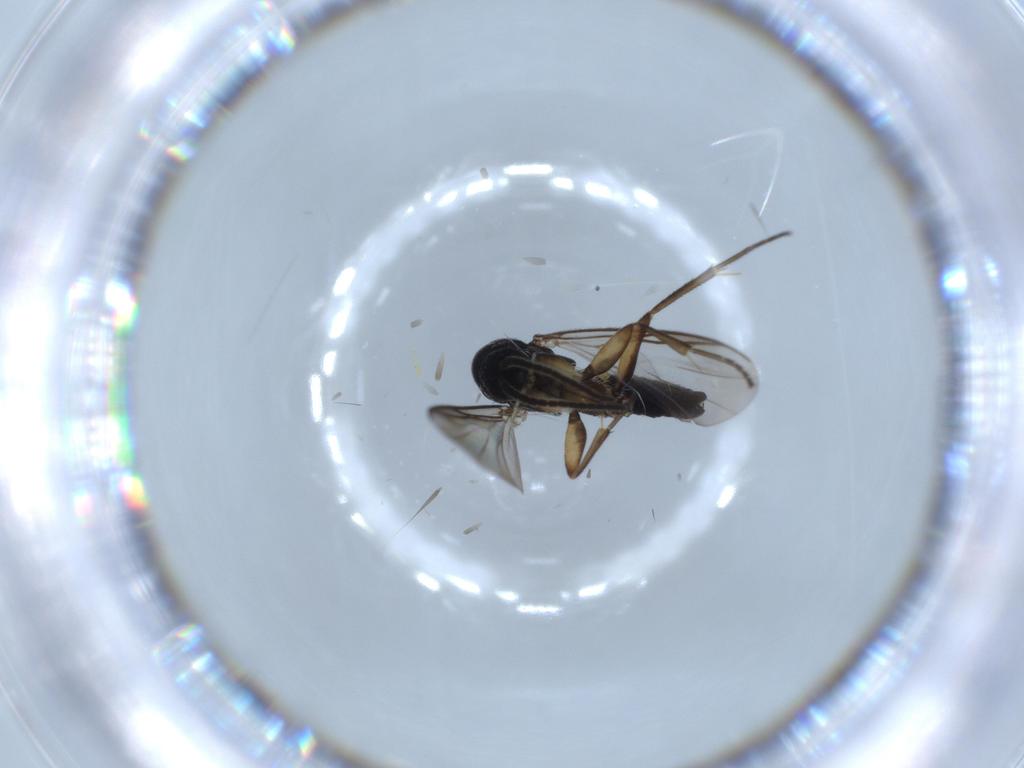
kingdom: Animalia
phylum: Arthropoda
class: Insecta
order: Diptera
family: Mycetophilidae
